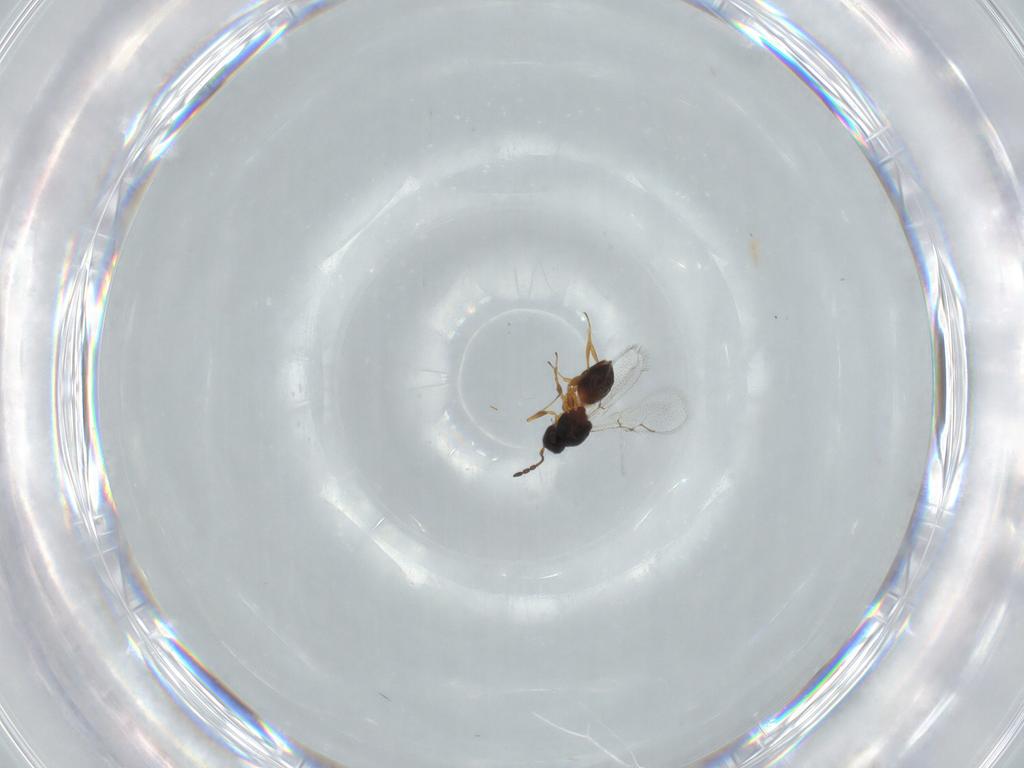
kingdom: Animalia
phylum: Arthropoda
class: Insecta
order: Hymenoptera
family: Figitidae
